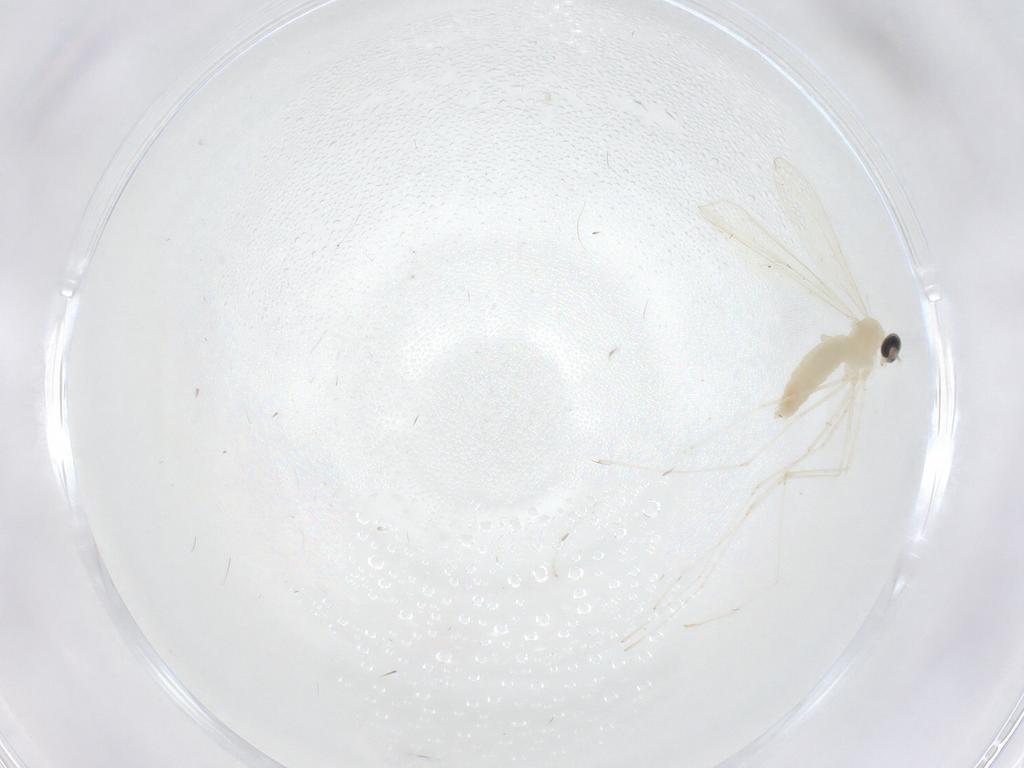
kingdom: Animalia
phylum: Arthropoda
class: Insecta
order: Diptera
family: Cecidomyiidae
